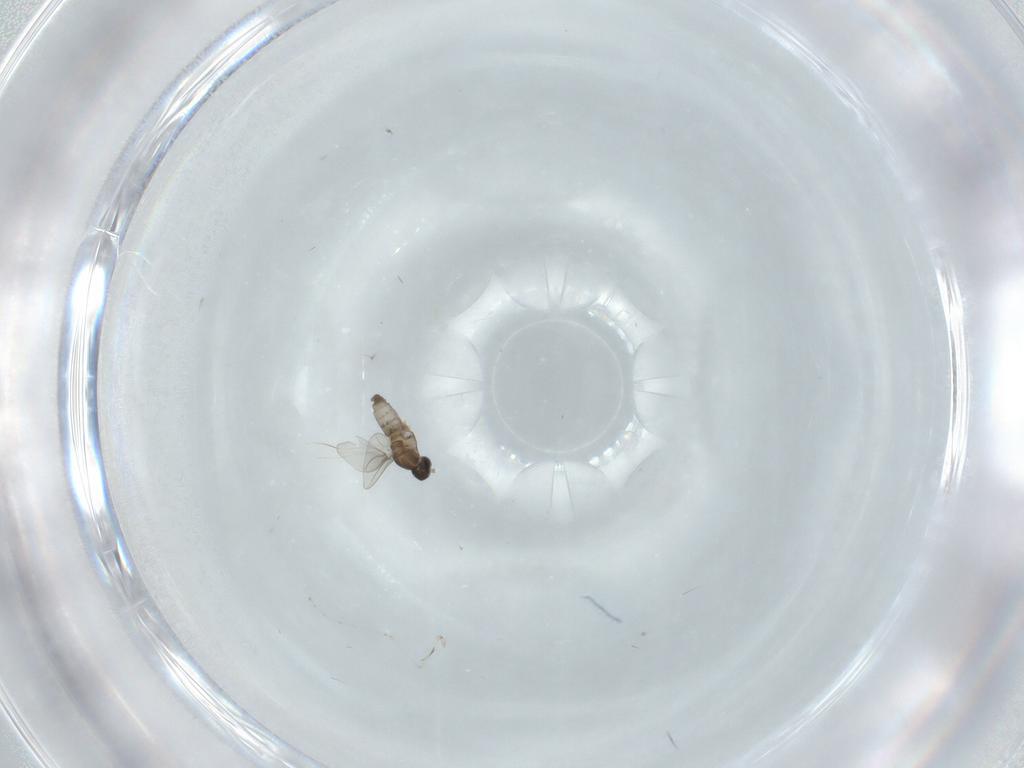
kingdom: Animalia
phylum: Arthropoda
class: Insecta
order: Diptera
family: Cecidomyiidae
